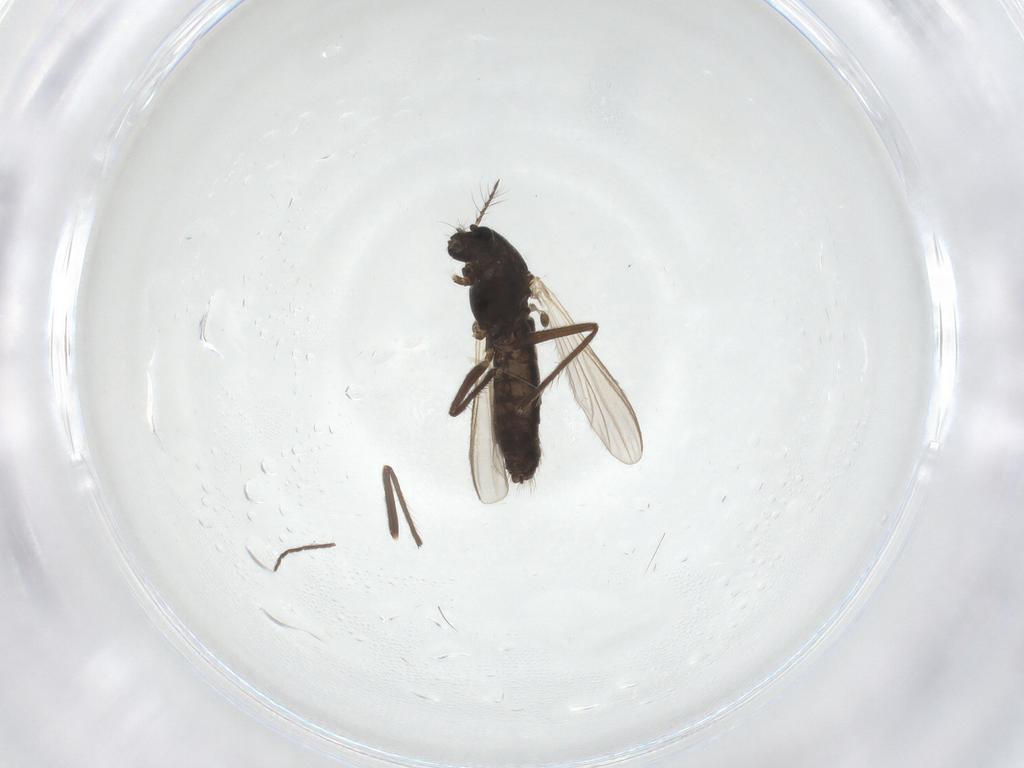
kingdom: Animalia
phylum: Arthropoda
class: Insecta
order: Diptera
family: Chironomidae
